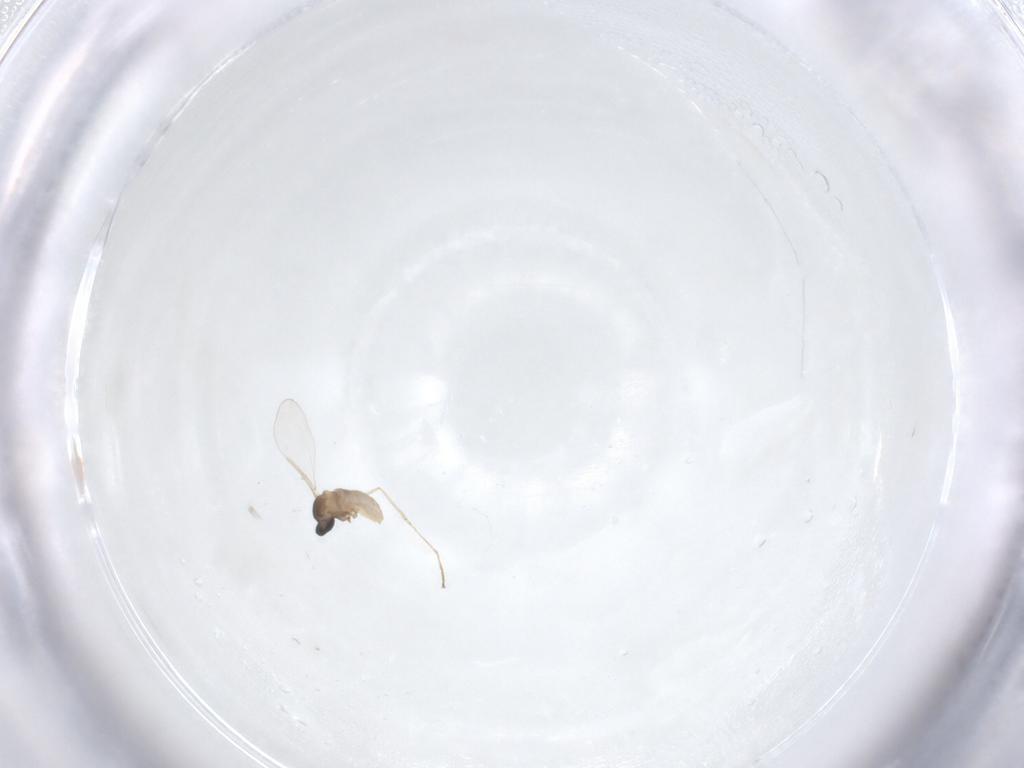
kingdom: Animalia
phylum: Arthropoda
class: Insecta
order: Diptera
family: Cecidomyiidae
